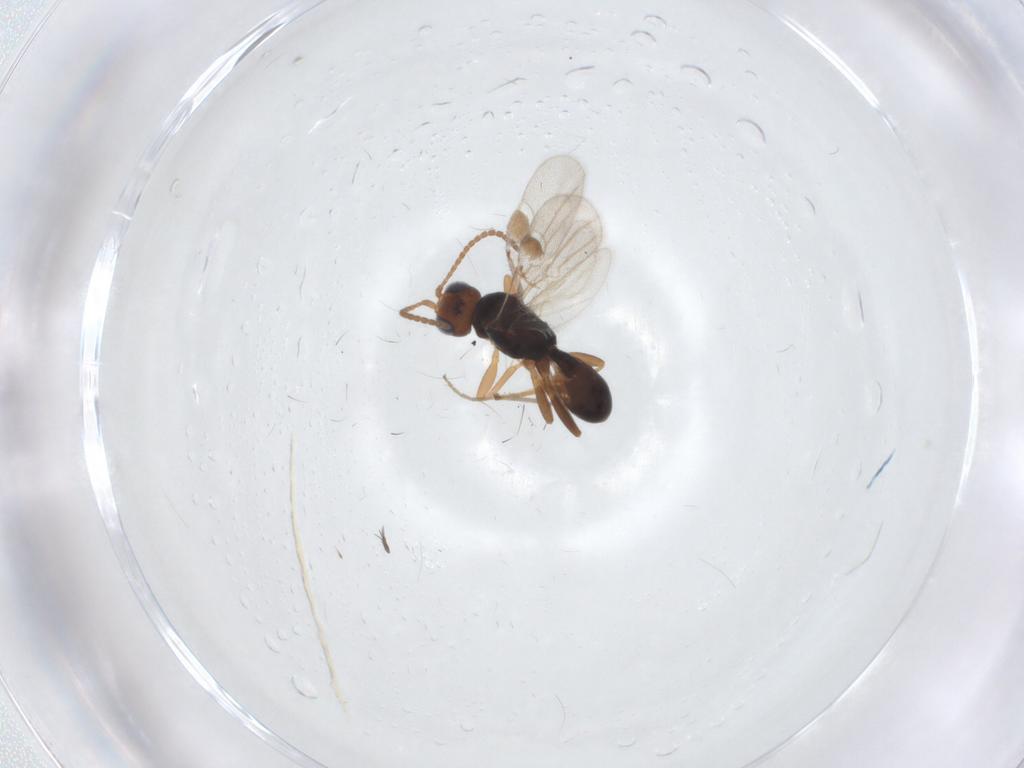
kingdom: Animalia
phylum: Arthropoda
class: Insecta
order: Hymenoptera
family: Braconidae
